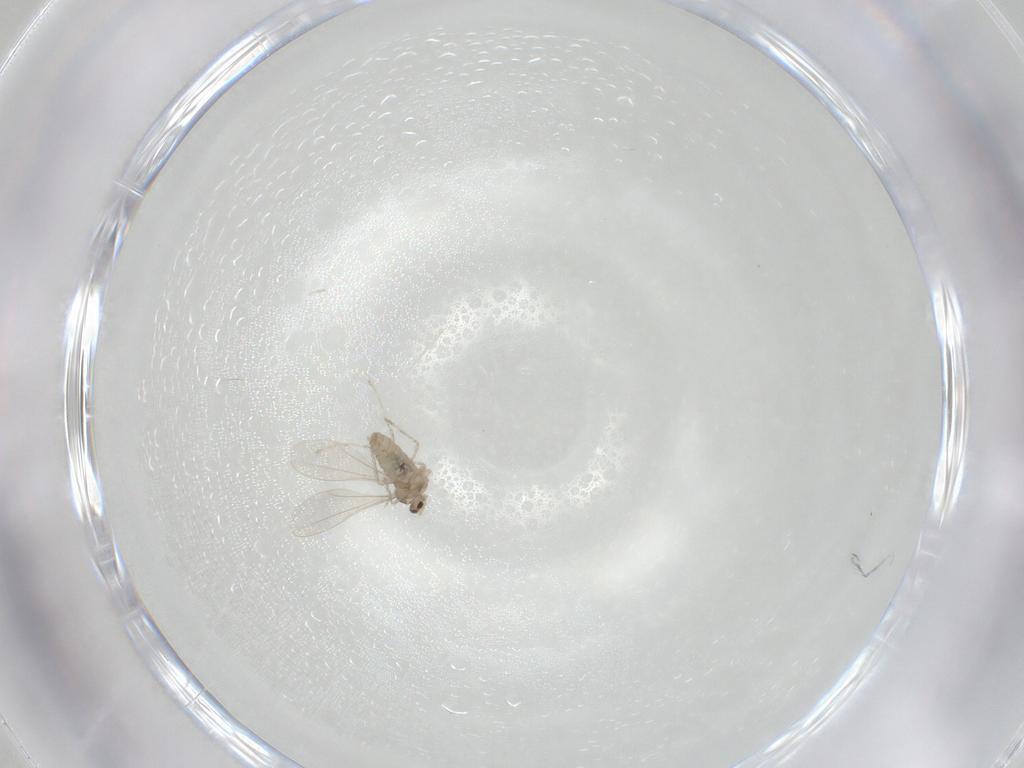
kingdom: Animalia
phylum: Arthropoda
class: Insecta
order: Diptera
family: Cecidomyiidae
